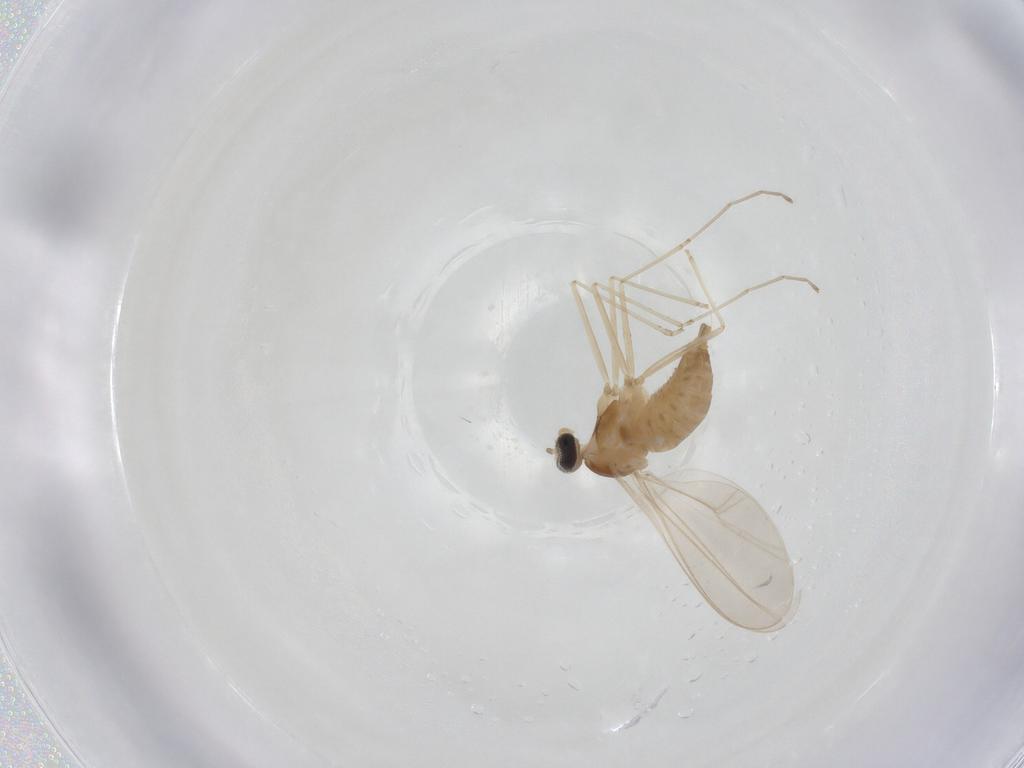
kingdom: Animalia
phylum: Arthropoda
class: Insecta
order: Diptera
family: Cecidomyiidae
